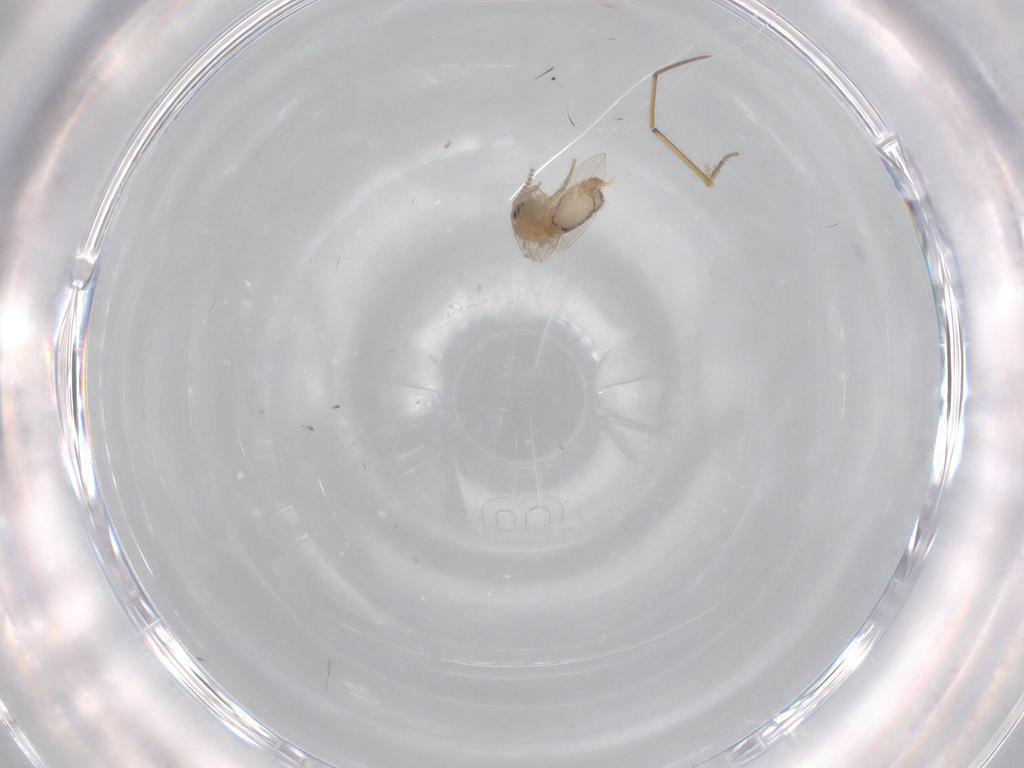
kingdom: Animalia
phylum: Arthropoda
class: Insecta
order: Diptera
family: Psychodidae
